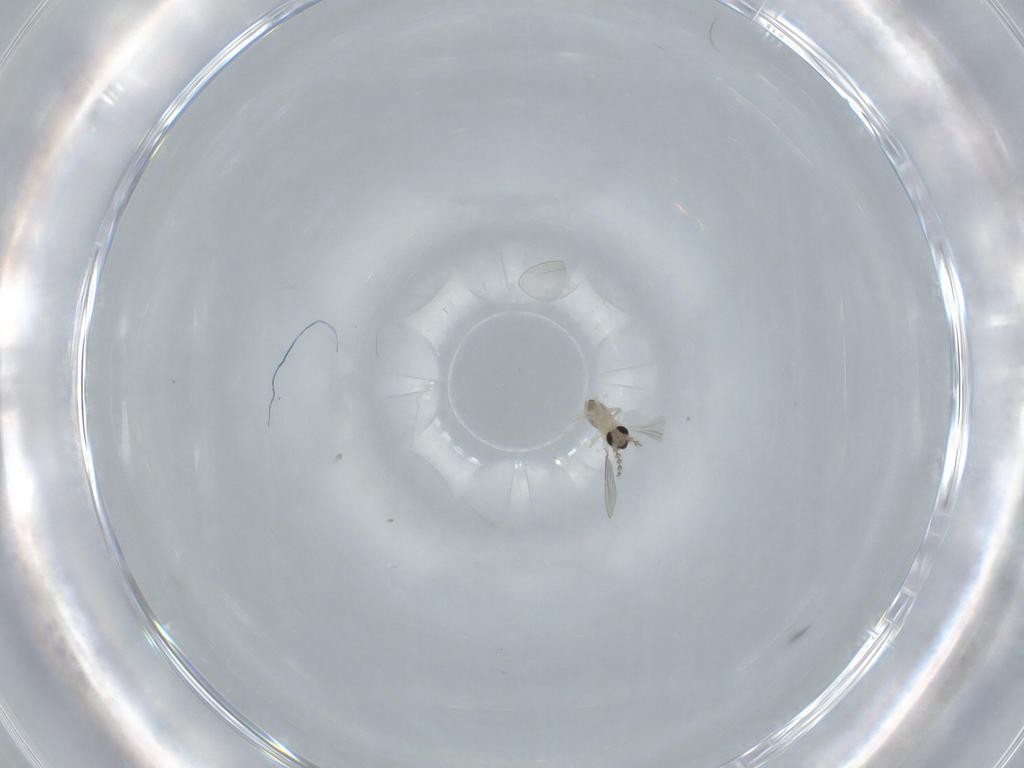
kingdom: Animalia
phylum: Arthropoda
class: Insecta
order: Diptera
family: Cecidomyiidae
